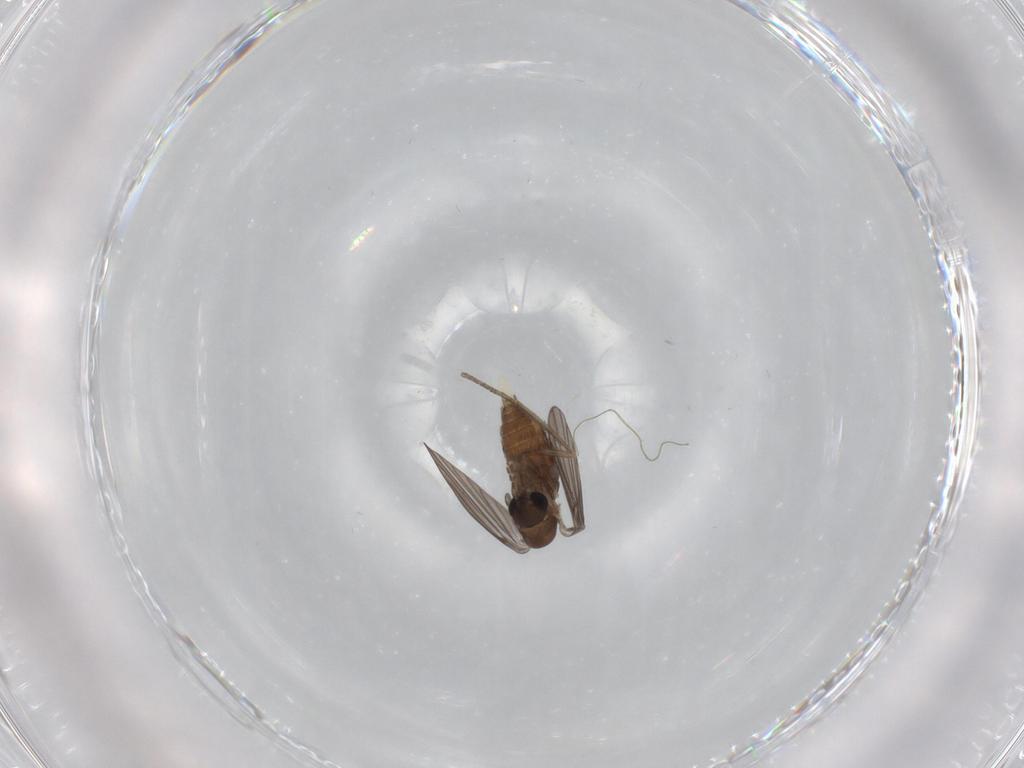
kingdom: Animalia
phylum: Arthropoda
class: Insecta
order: Diptera
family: Psychodidae
